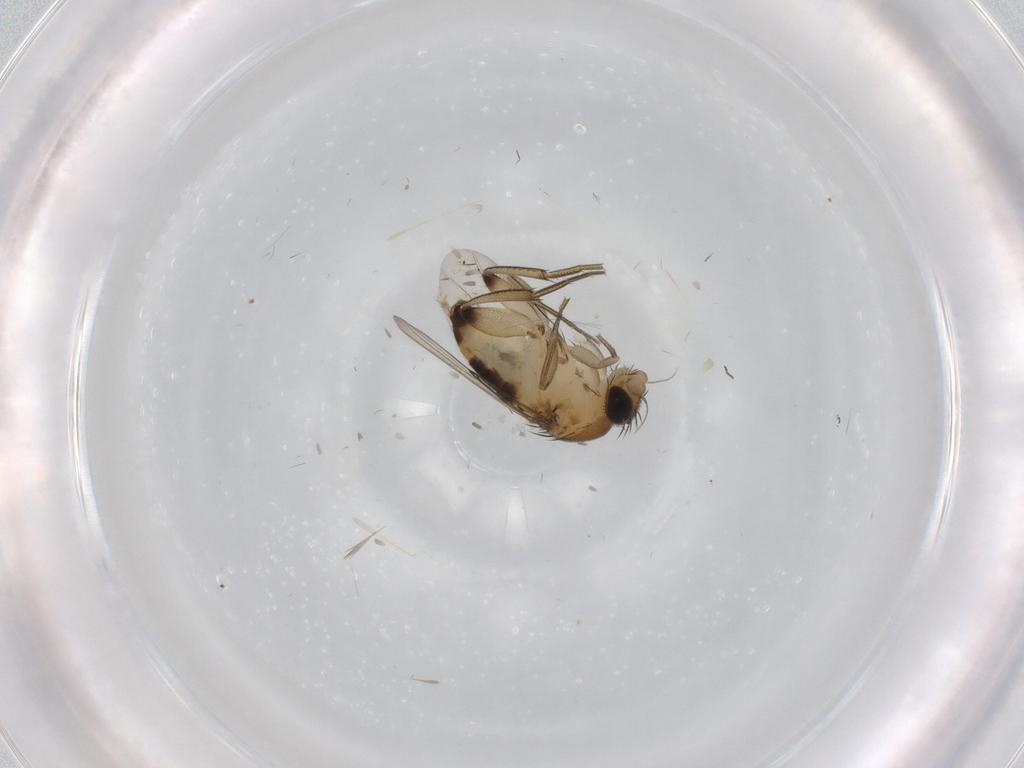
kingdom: Animalia
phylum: Arthropoda
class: Insecta
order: Diptera
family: Phoridae
